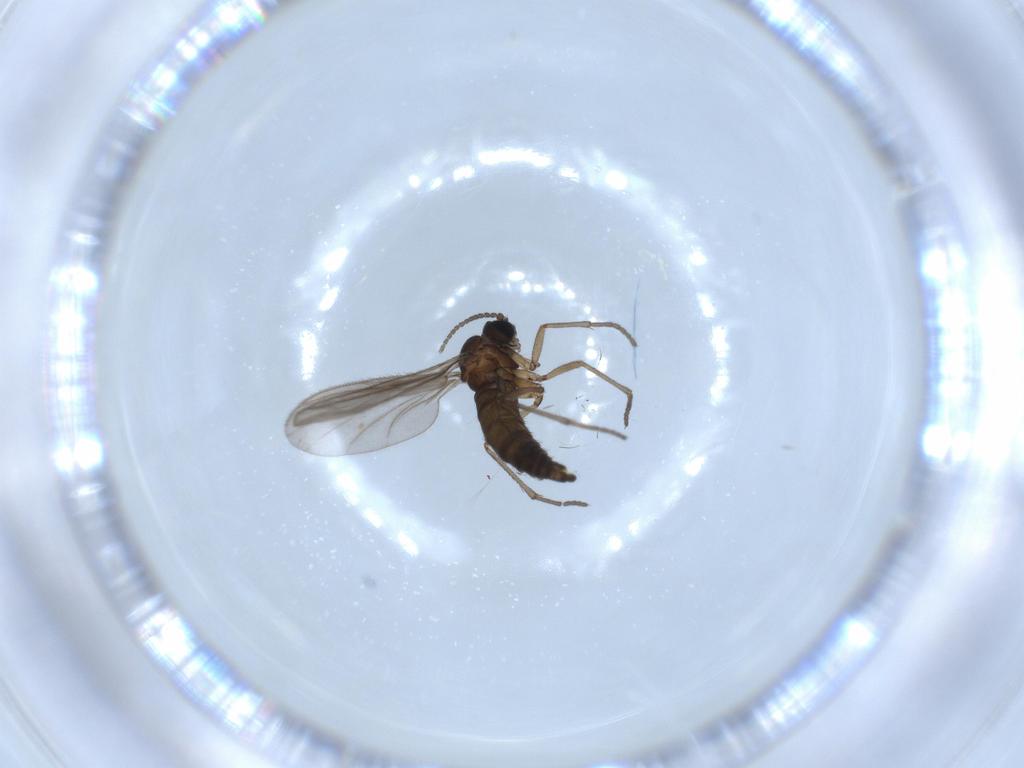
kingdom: Animalia
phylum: Arthropoda
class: Insecta
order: Diptera
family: Sciaridae
